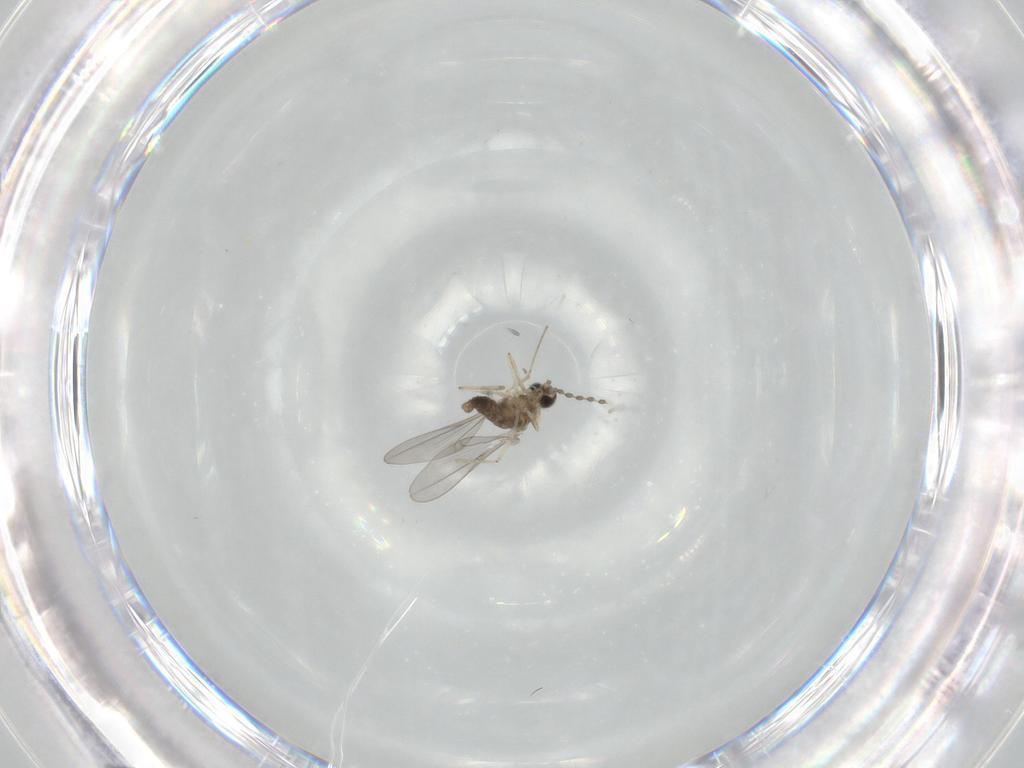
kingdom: Animalia
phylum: Arthropoda
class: Insecta
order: Diptera
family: Cecidomyiidae
